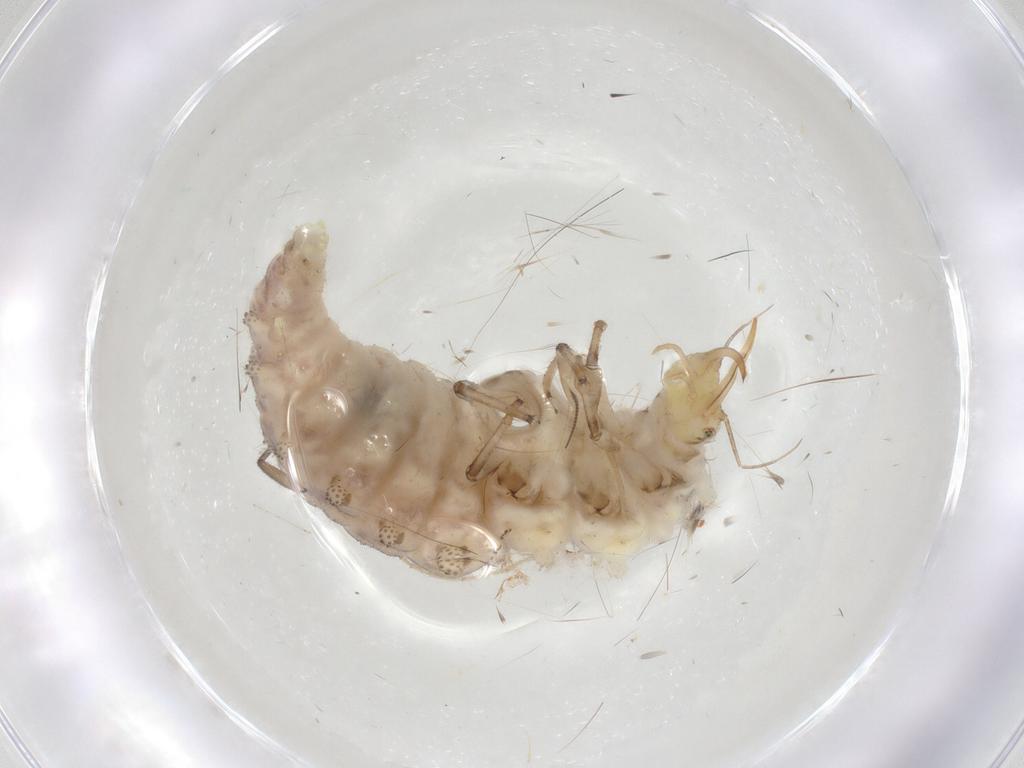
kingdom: Animalia
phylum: Arthropoda
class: Insecta
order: Neuroptera
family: Chrysopidae
